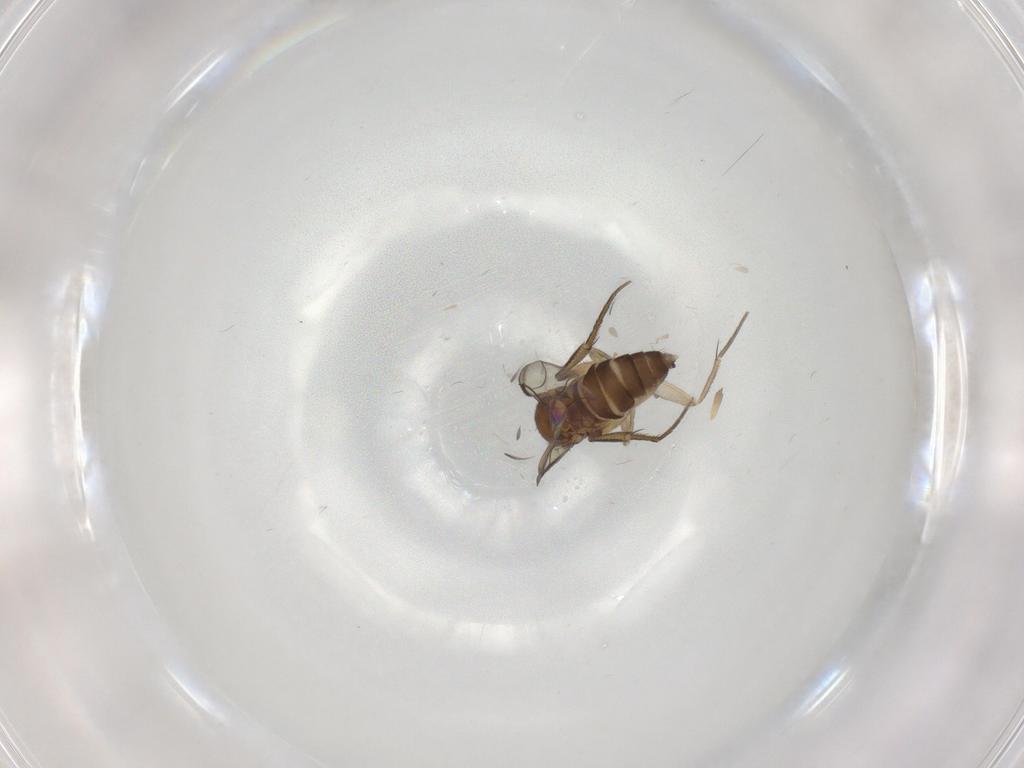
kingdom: Animalia
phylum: Arthropoda
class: Insecta
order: Diptera
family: Phoridae
